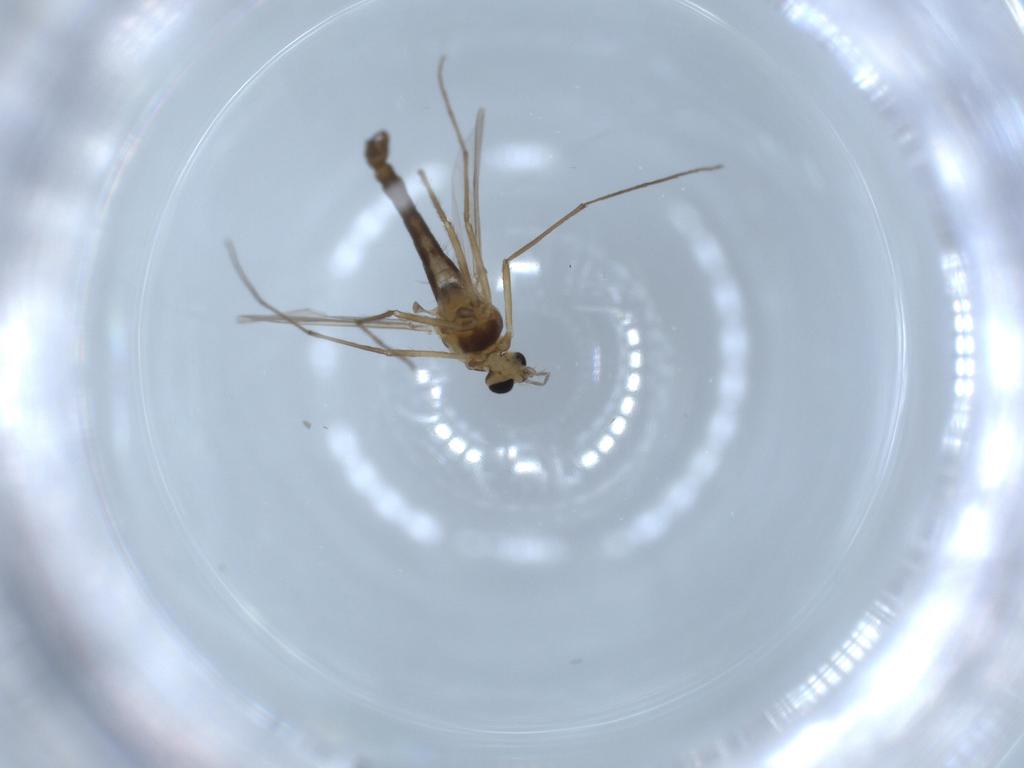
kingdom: Animalia
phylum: Arthropoda
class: Insecta
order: Diptera
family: Chironomidae
